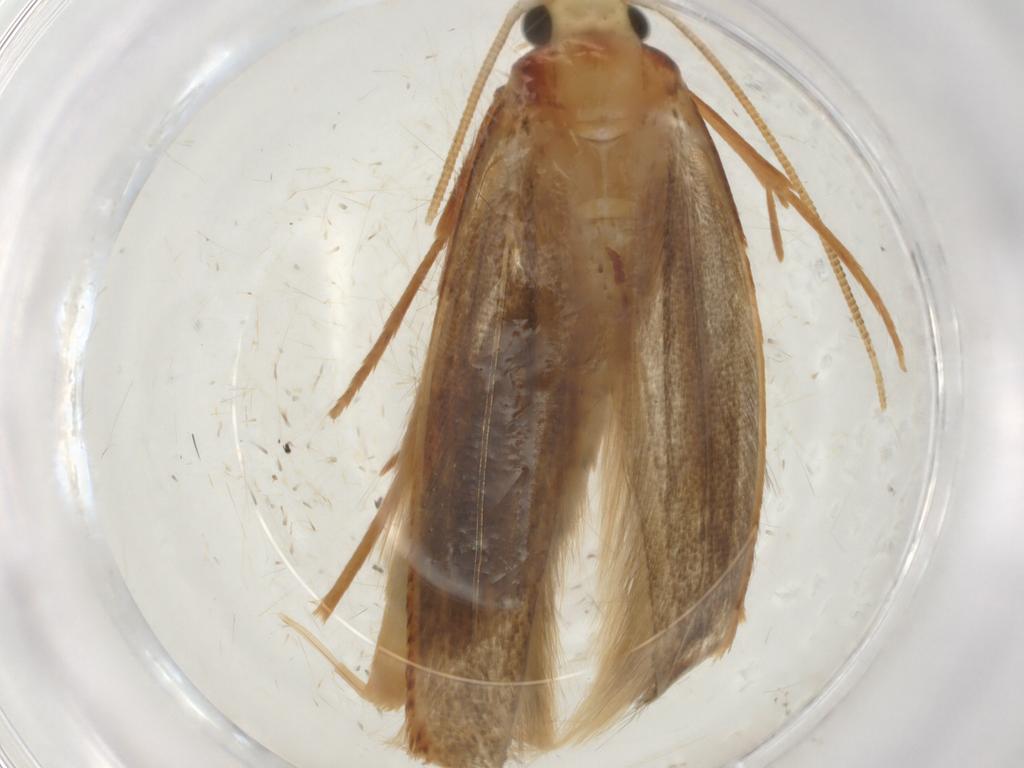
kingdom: Animalia
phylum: Arthropoda
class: Insecta
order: Lepidoptera
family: Tineidae
